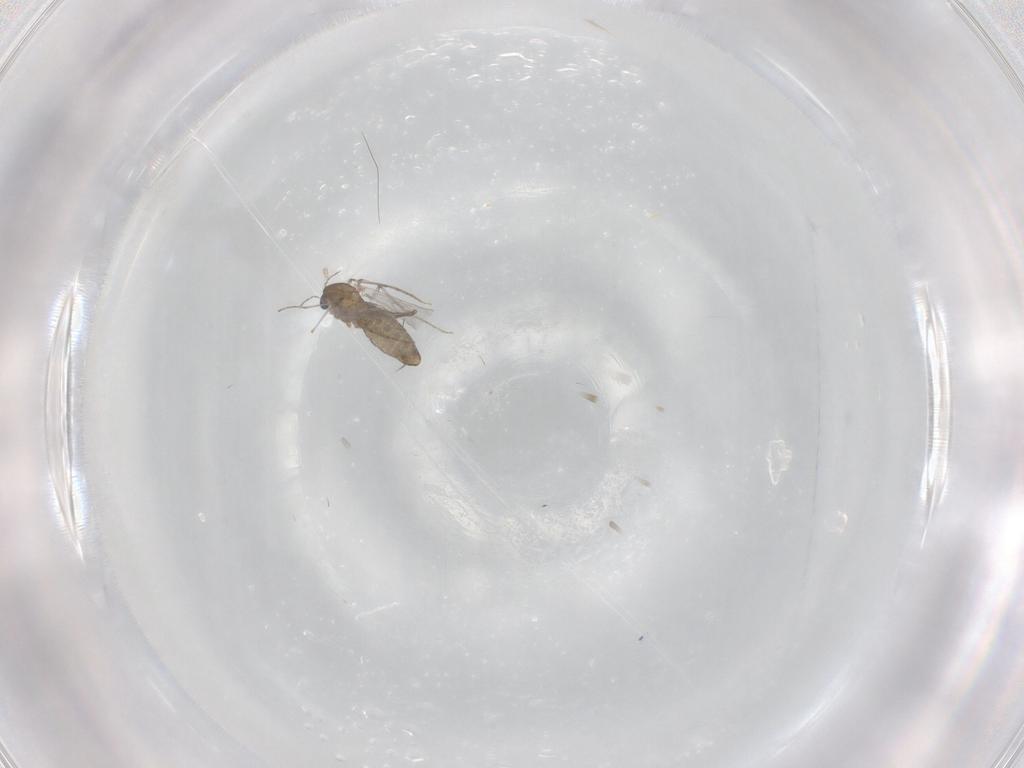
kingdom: Animalia
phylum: Arthropoda
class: Insecta
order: Diptera
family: Chironomidae
